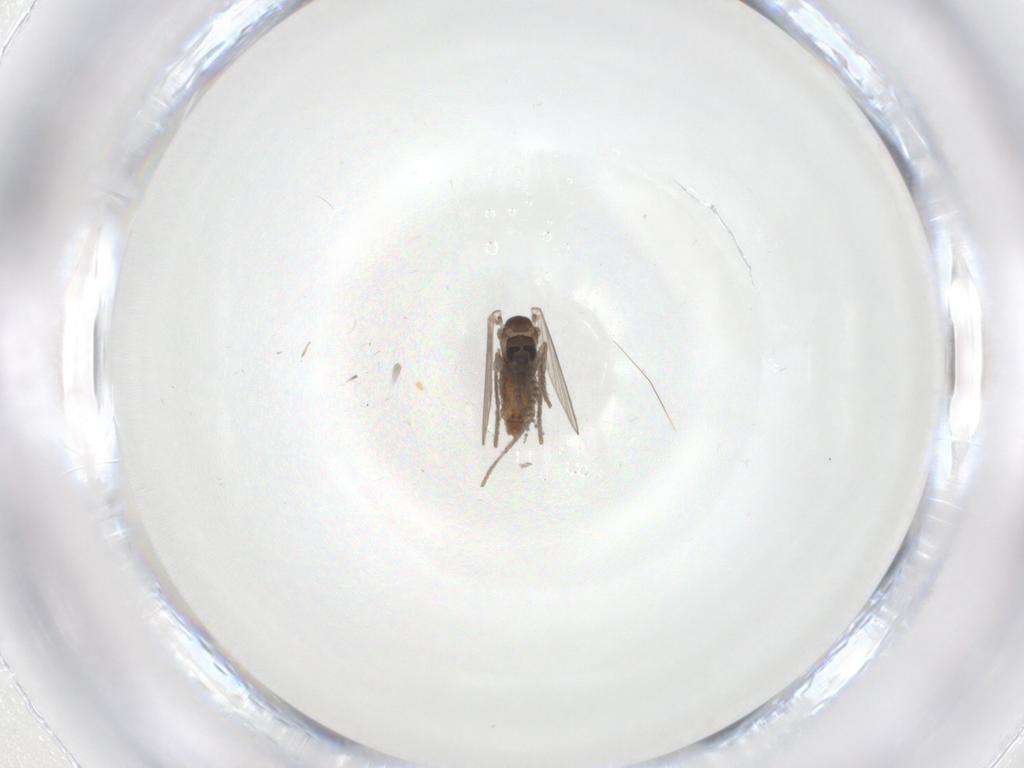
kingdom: Animalia
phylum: Arthropoda
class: Insecta
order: Diptera
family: Psychodidae
